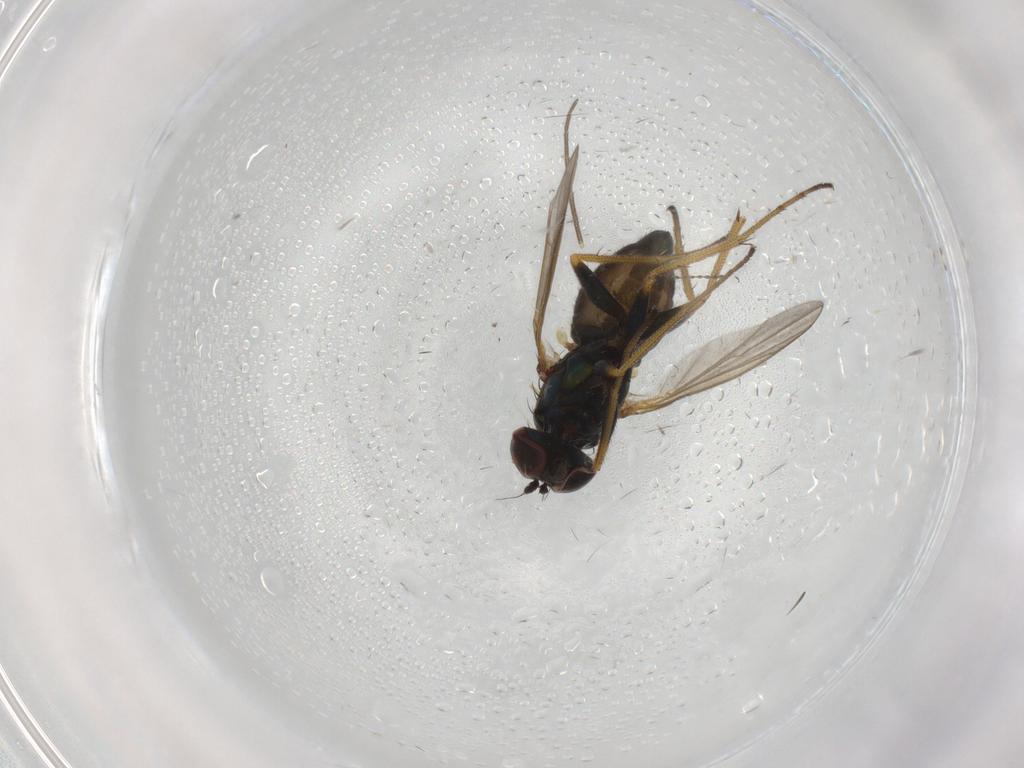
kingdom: Animalia
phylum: Arthropoda
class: Insecta
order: Diptera
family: Dolichopodidae
